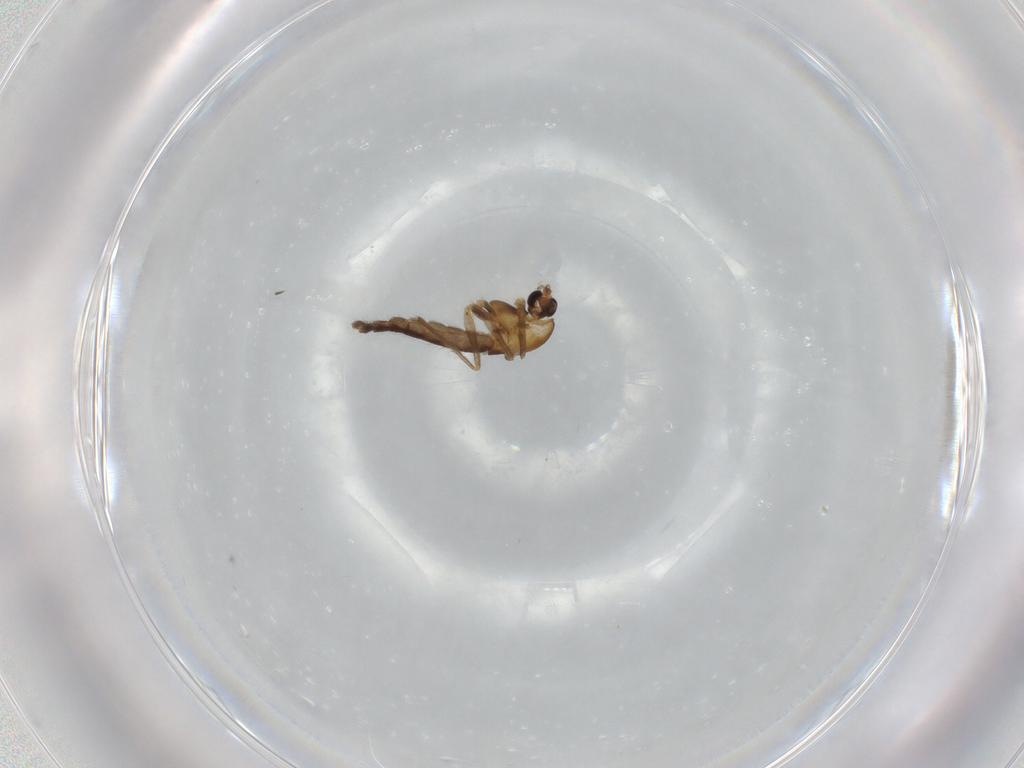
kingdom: Animalia
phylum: Arthropoda
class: Insecta
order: Diptera
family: Chironomidae
